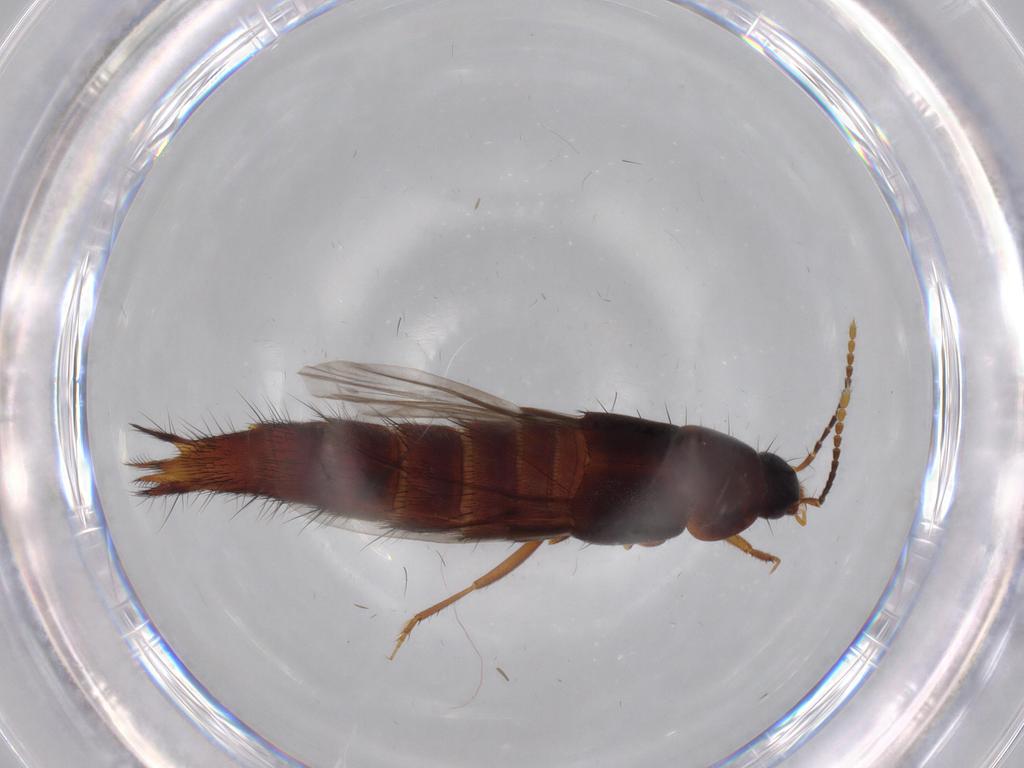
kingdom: Animalia
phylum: Arthropoda
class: Insecta
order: Coleoptera
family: Staphylinidae
